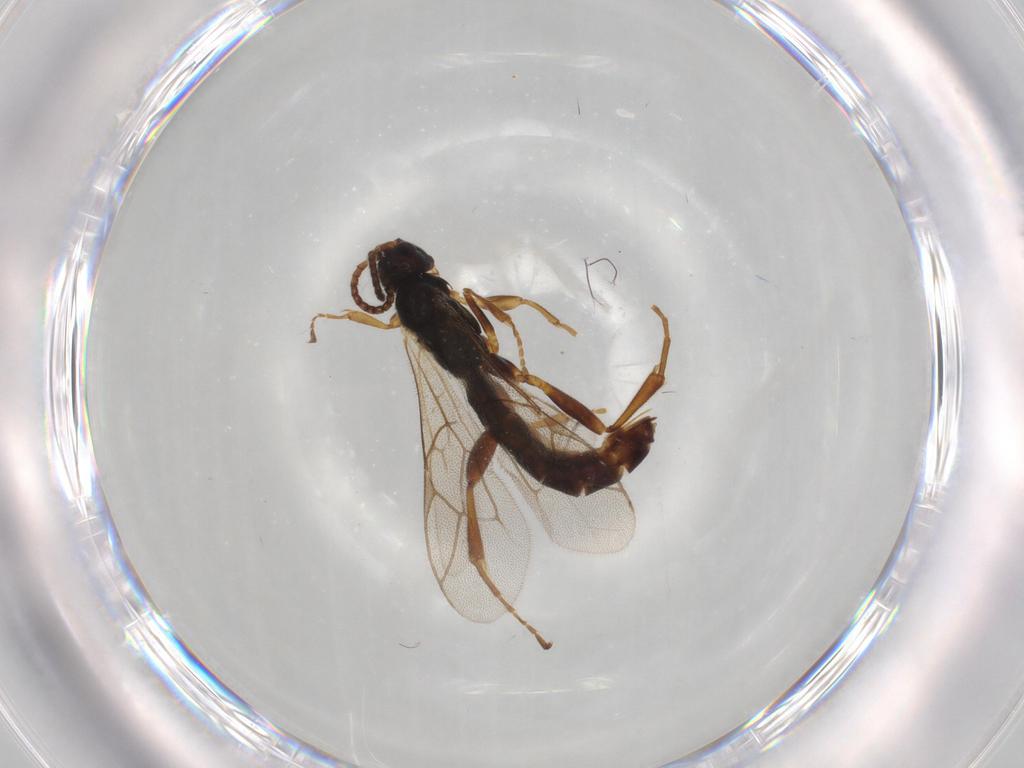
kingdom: Animalia
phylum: Arthropoda
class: Insecta
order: Hymenoptera
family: Ichneumonidae
